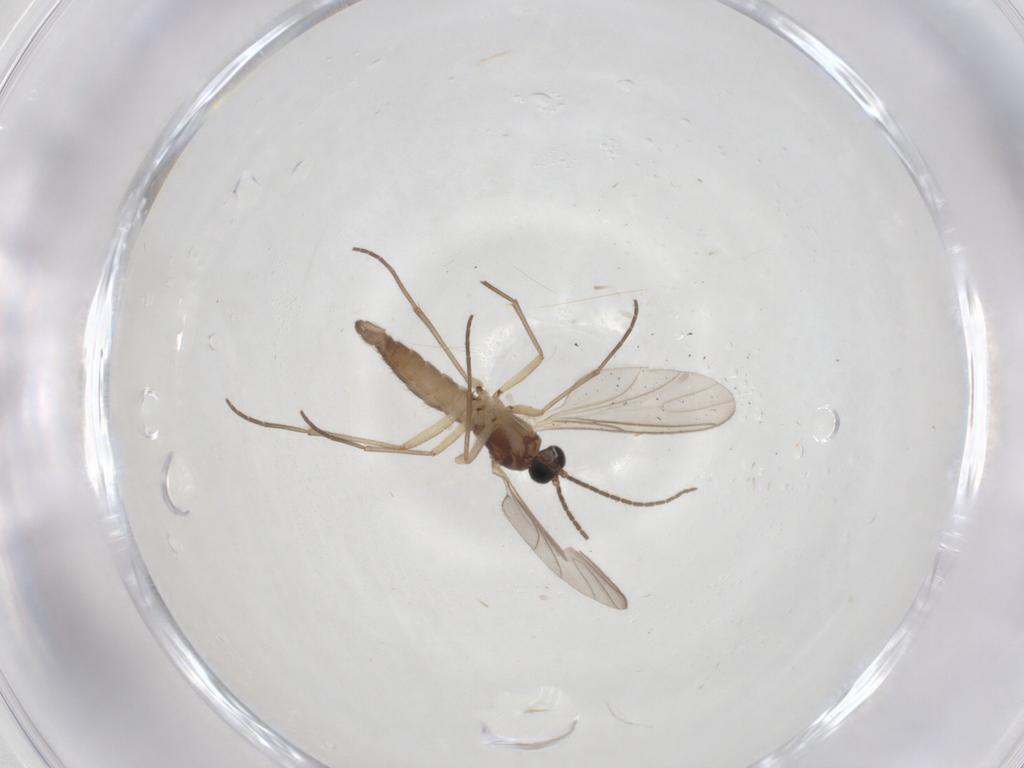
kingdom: Animalia
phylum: Arthropoda
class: Insecta
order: Diptera
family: Sciaridae
